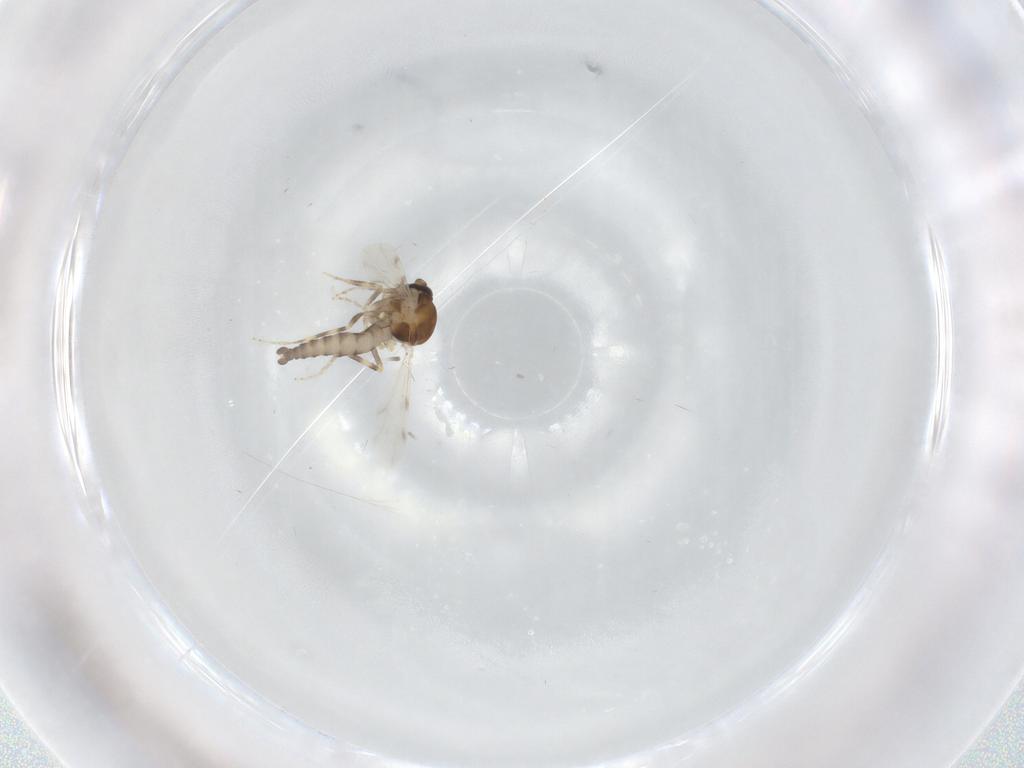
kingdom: Animalia
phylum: Arthropoda
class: Insecta
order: Diptera
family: Ceratopogonidae
